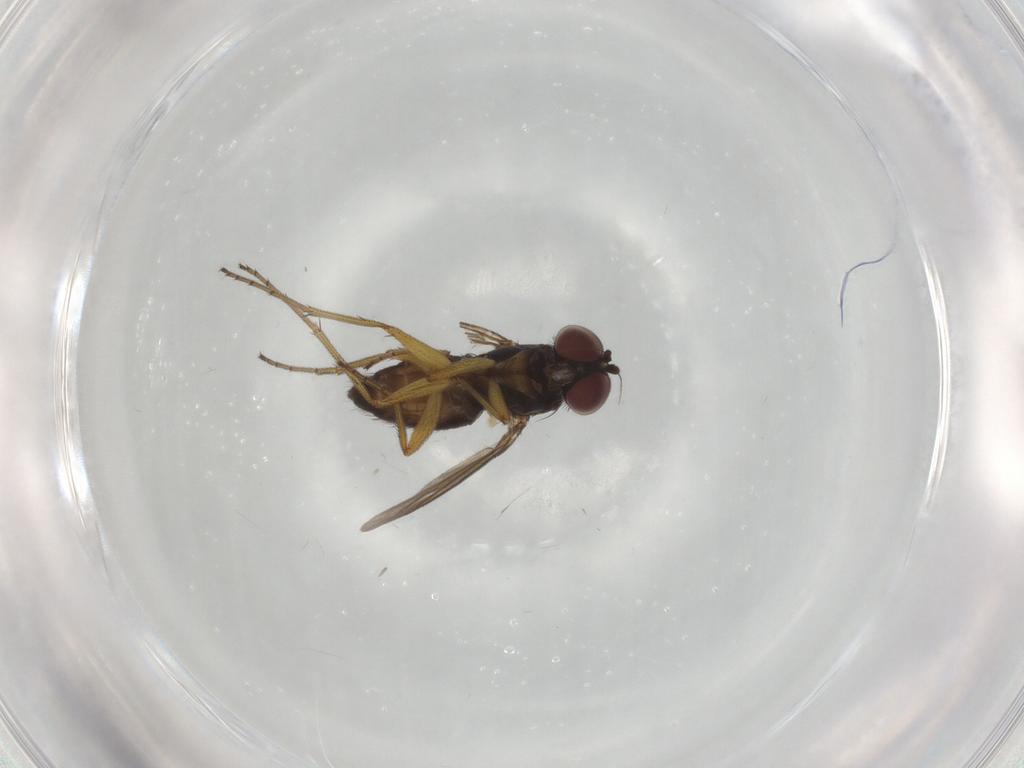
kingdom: Animalia
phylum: Arthropoda
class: Insecta
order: Diptera
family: Dolichopodidae
